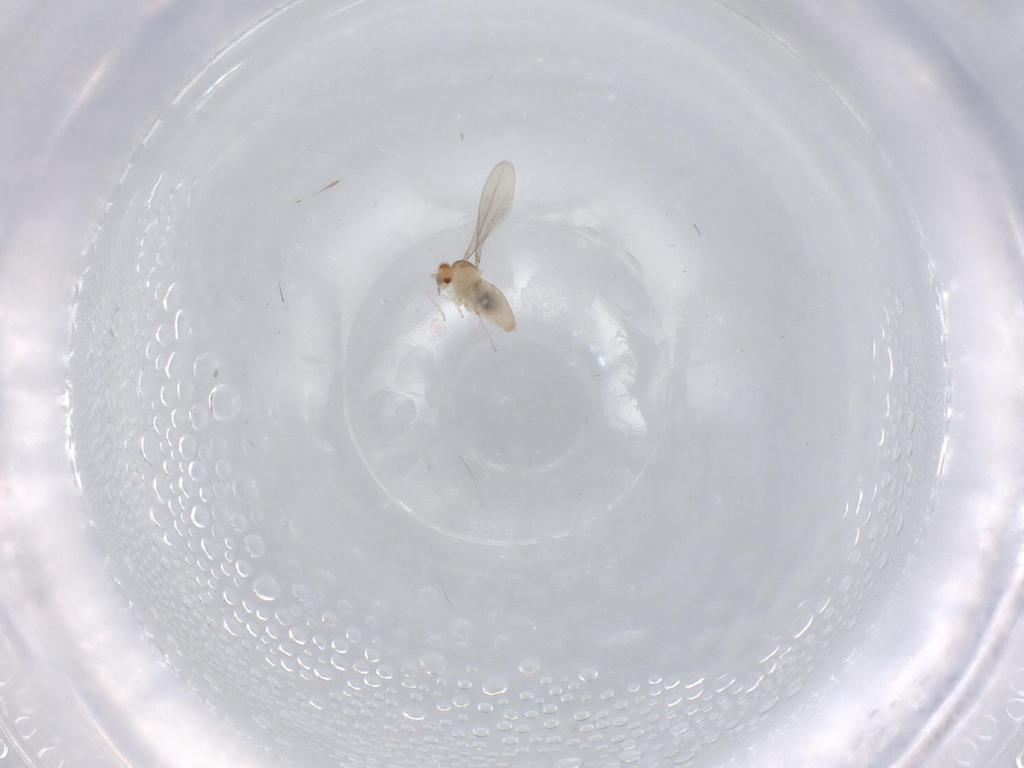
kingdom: Animalia
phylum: Arthropoda
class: Insecta
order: Diptera
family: Cecidomyiidae
